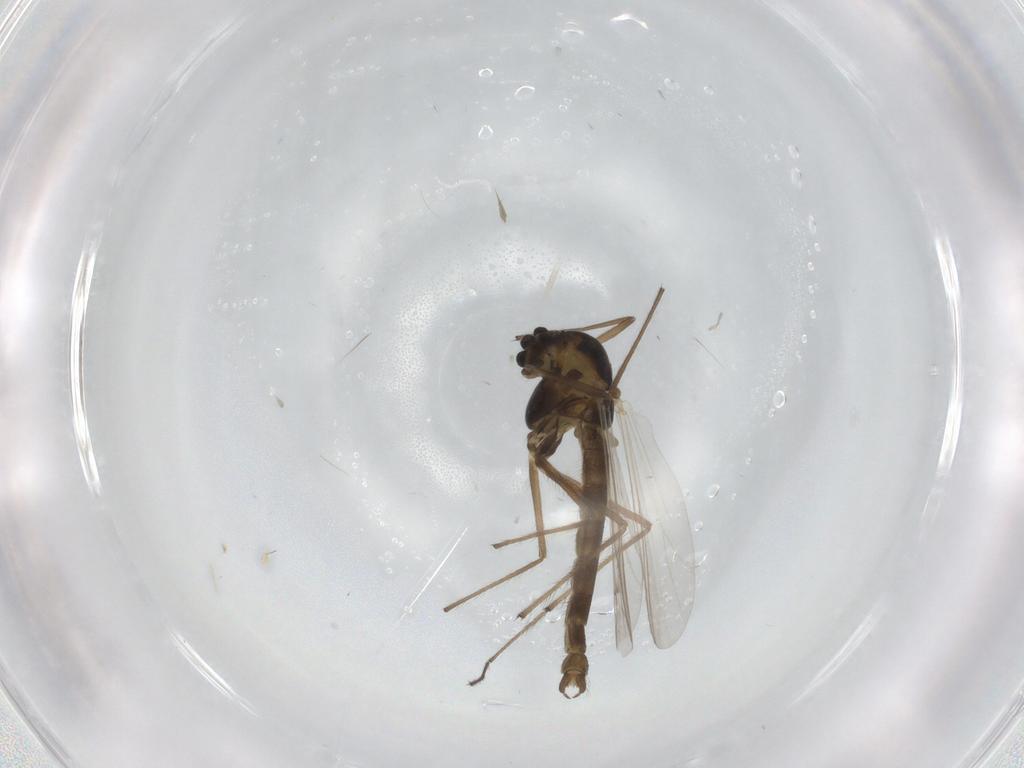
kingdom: Animalia
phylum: Arthropoda
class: Insecta
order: Diptera
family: Chironomidae
